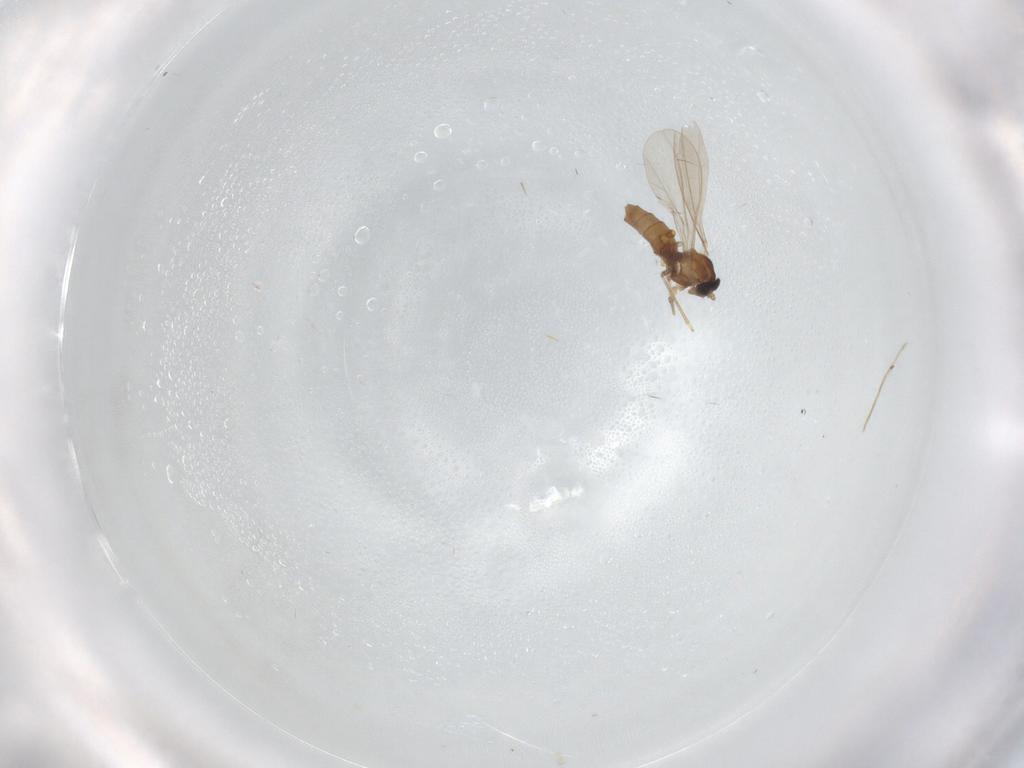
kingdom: Animalia
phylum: Arthropoda
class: Insecta
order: Diptera
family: Cecidomyiidae
